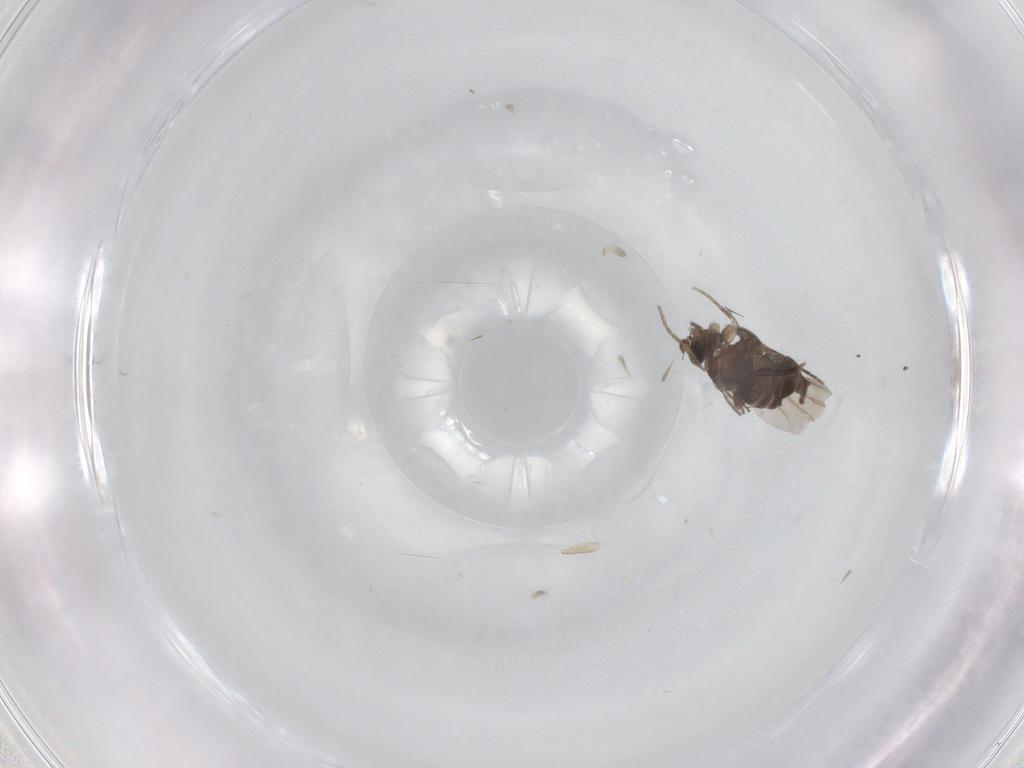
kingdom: Animalia
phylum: Arthropoda
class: Insecta
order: Diptera
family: Phoridae
